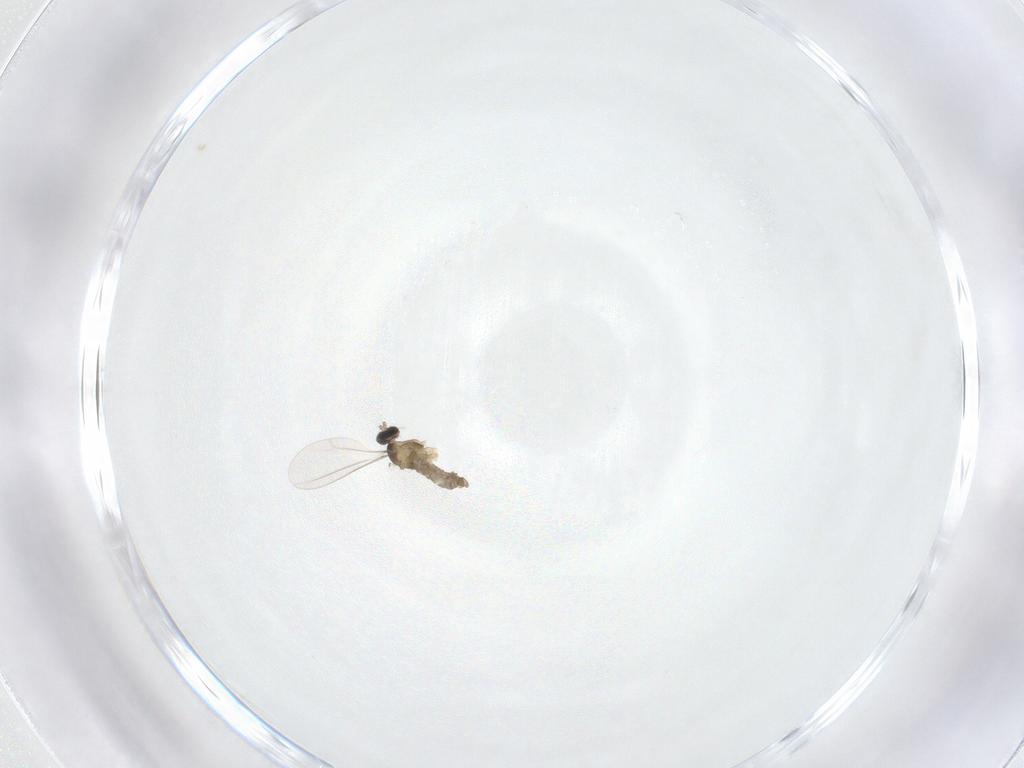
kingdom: Animalia
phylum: Arthropoda
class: Insecta
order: Diptera
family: Cecidomyiidae
